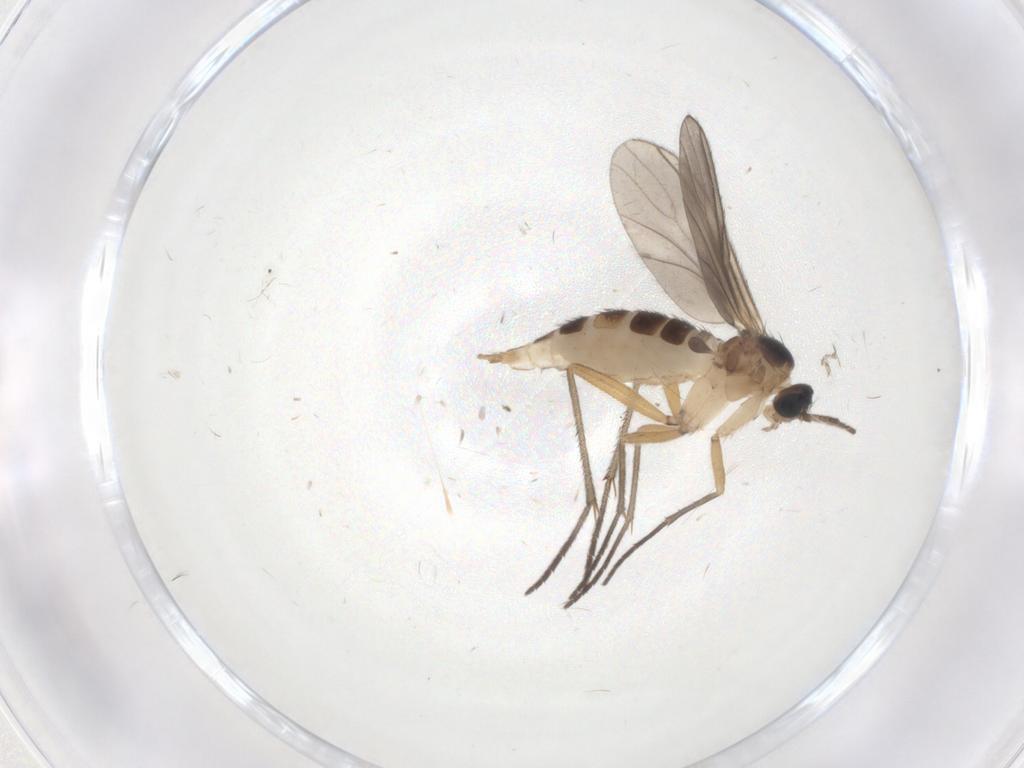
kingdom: Animalia
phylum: Arthropoda
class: Insecta
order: Diptera
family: Sciaridae
